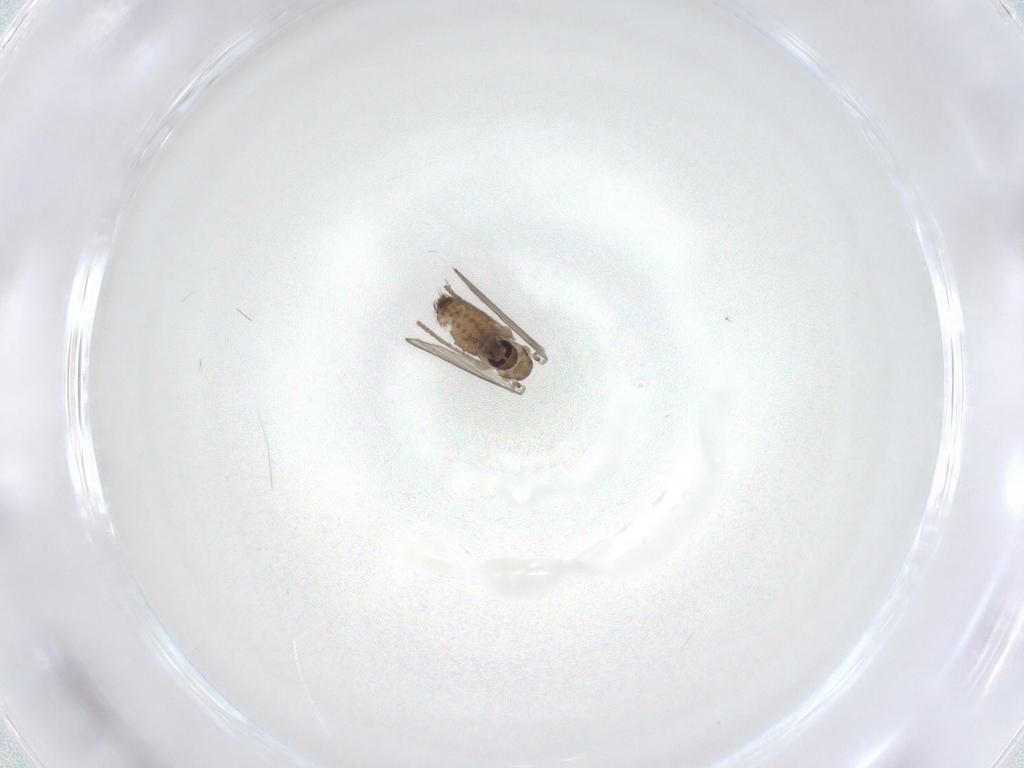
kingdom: Animalia
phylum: Arthropoda
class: Insecta
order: Diptera
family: Psychodidae
